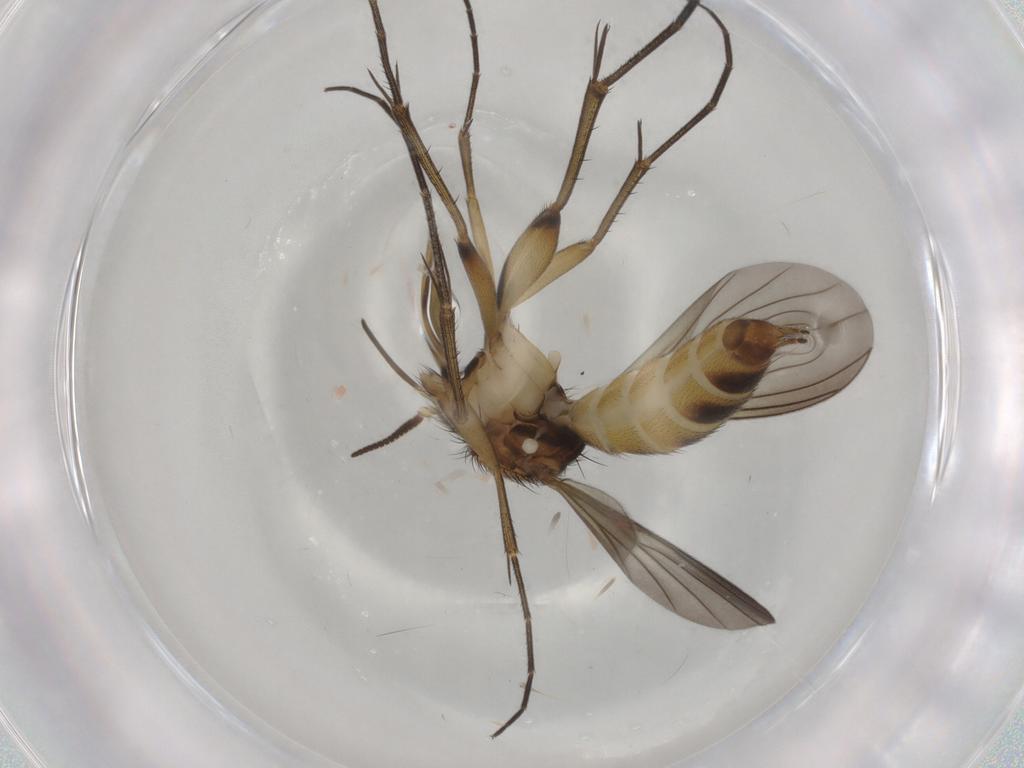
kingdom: Animalia
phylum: Arthropoda
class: Insecta
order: Diptera
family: Mycetophilidae
